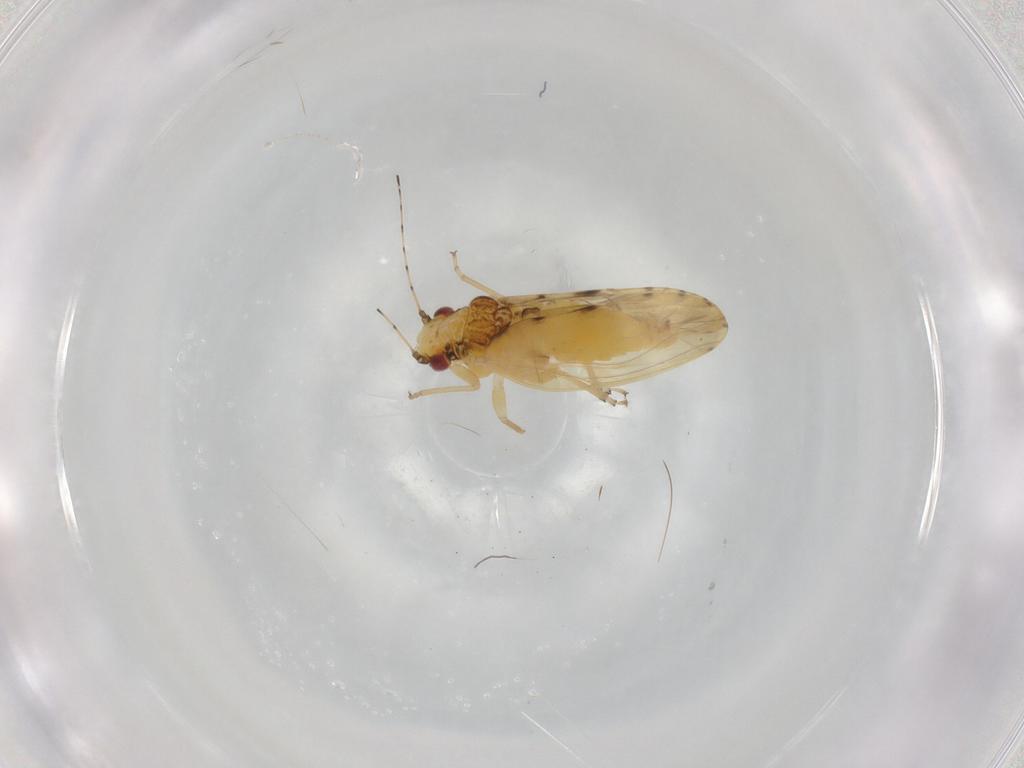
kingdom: Animalia
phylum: Arthropoda
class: Insecta
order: Hemiptera
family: Tingidae
